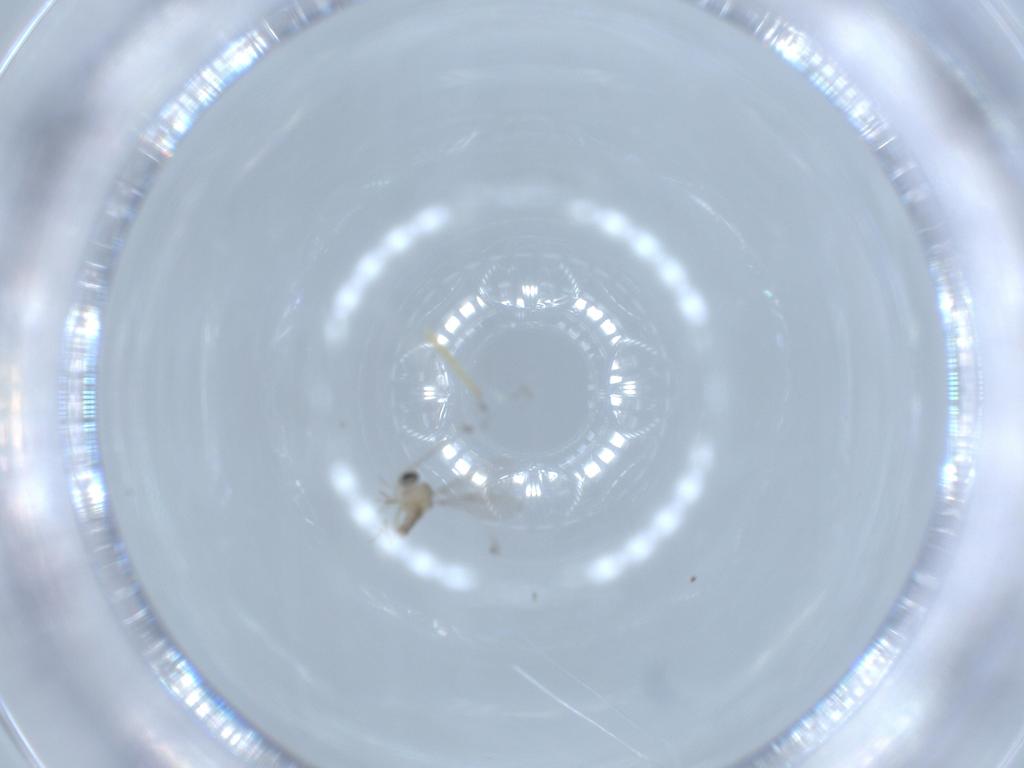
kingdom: Animalia
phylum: Arthropoda
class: Insecta
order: Diptera
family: Cecidomyiidae
